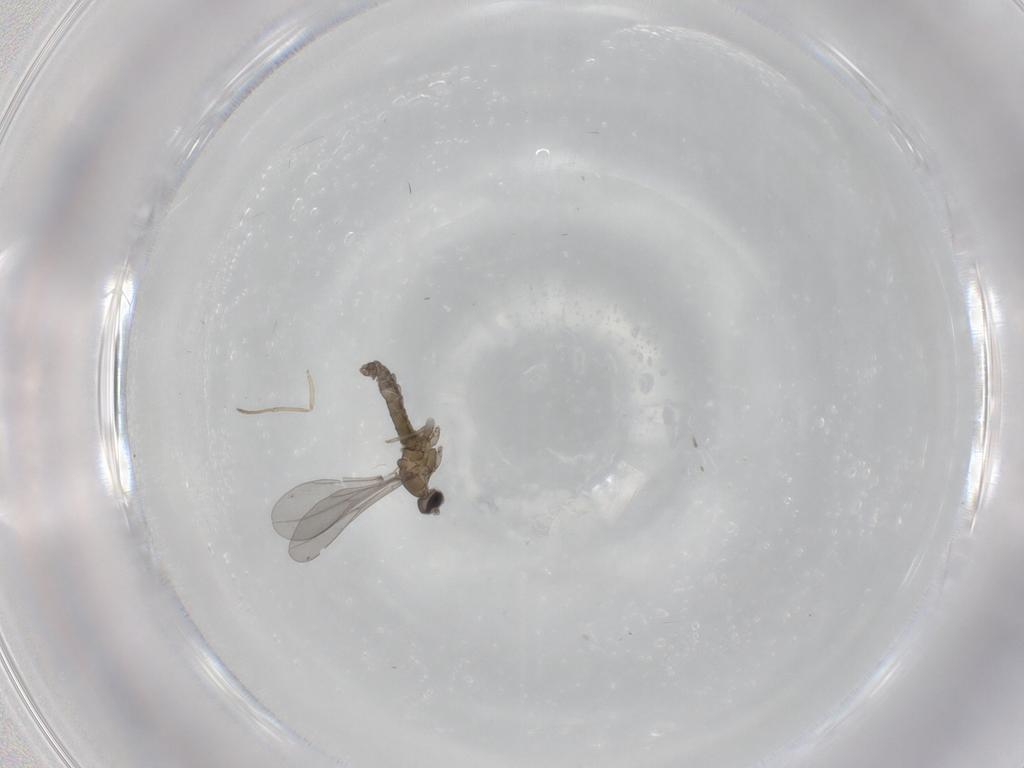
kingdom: Animalia
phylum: Arthropoda
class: Insecta
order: Diptera
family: Cecidomyiidae
